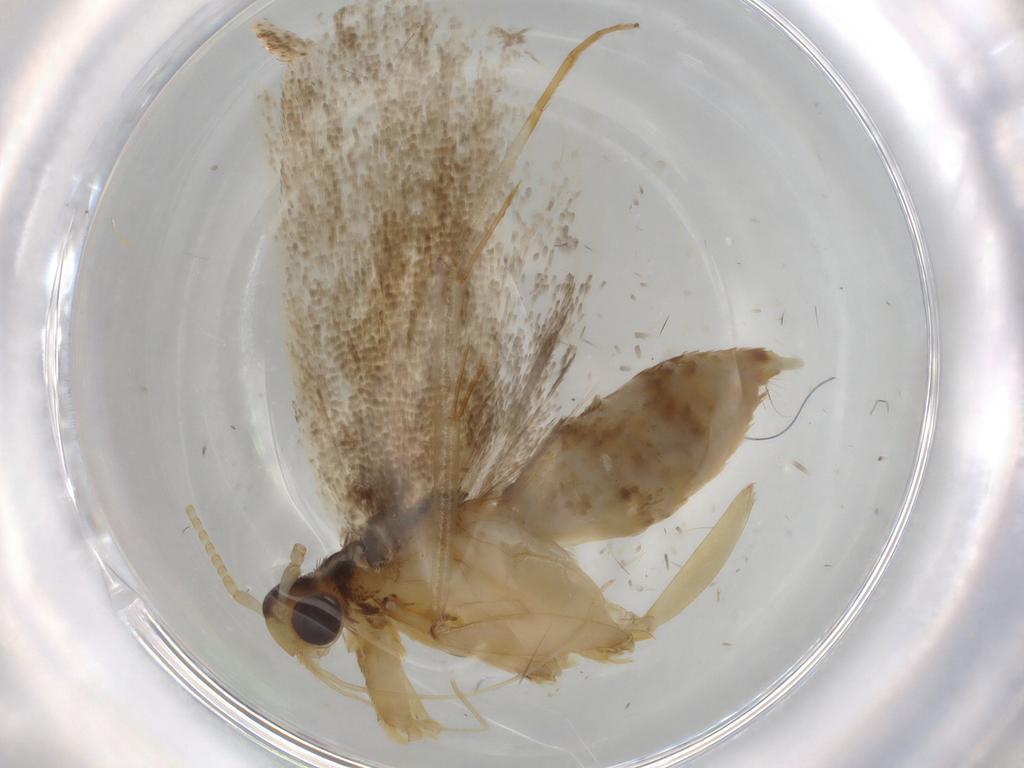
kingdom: Animalia
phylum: Arthropoda
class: Insecta
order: Lepidoptera
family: Lecithoceridae
